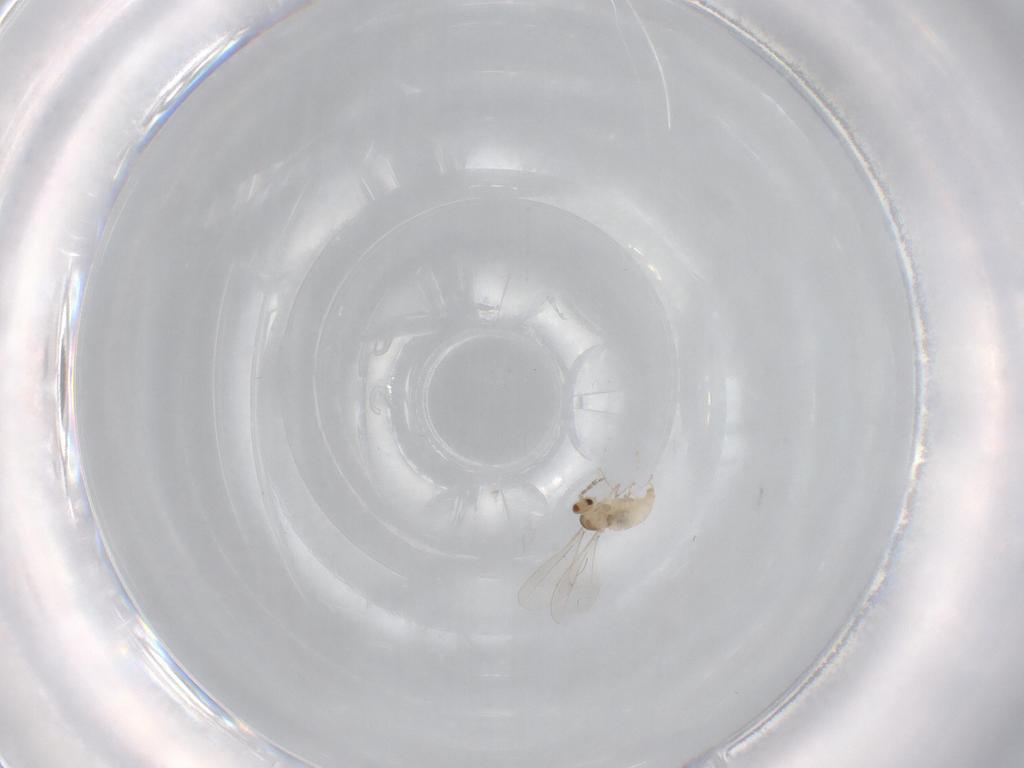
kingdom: Animalia
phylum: Arthropoda
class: Insecta
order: Diptera
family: Cecidomyiidae
